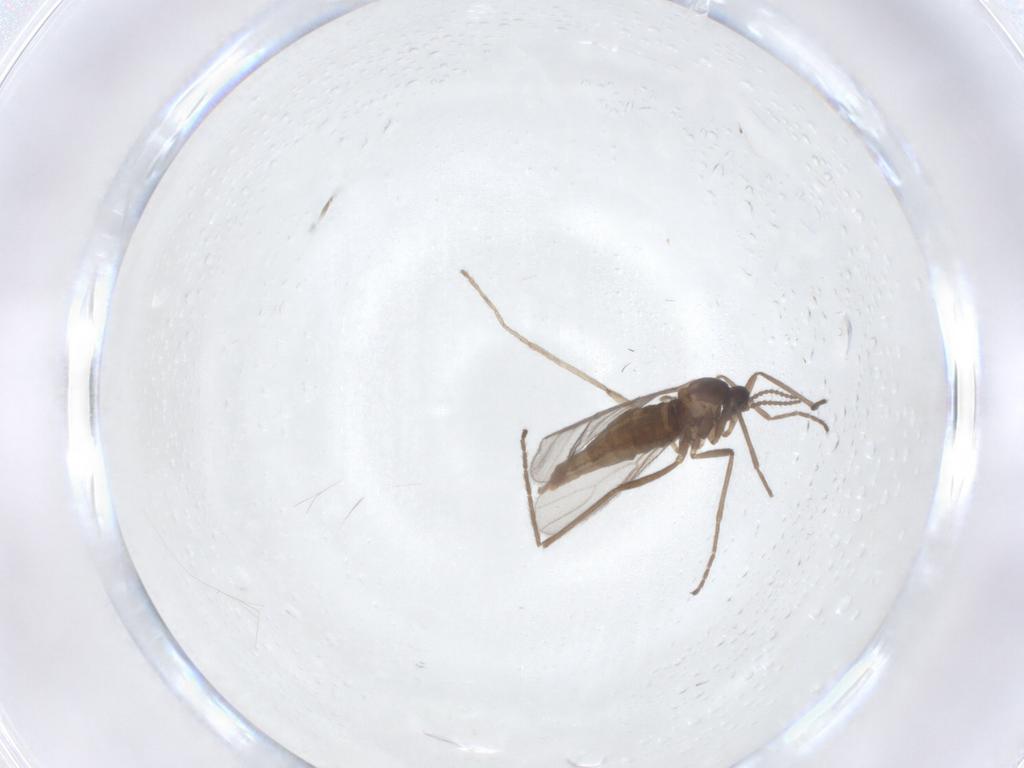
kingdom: Animalia
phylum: Arthropoda
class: Insecta
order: Diptera
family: Cecidomyiidae
